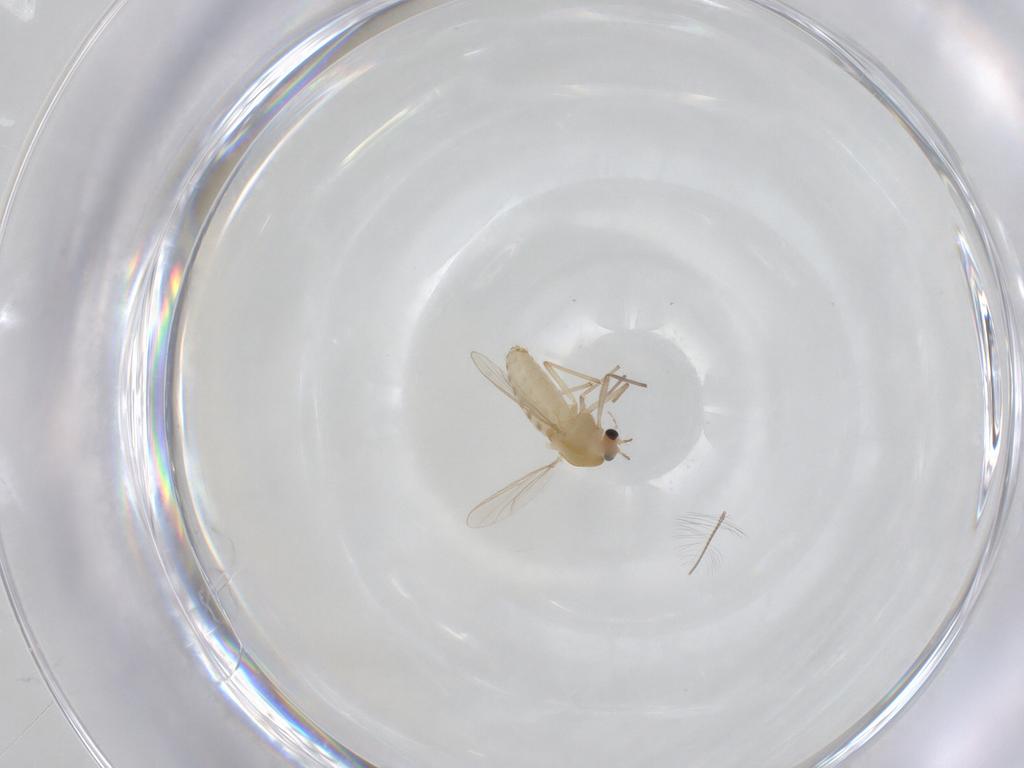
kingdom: Animalia
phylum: Arthropoda
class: Insecta
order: Diptera
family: Chironomidae
